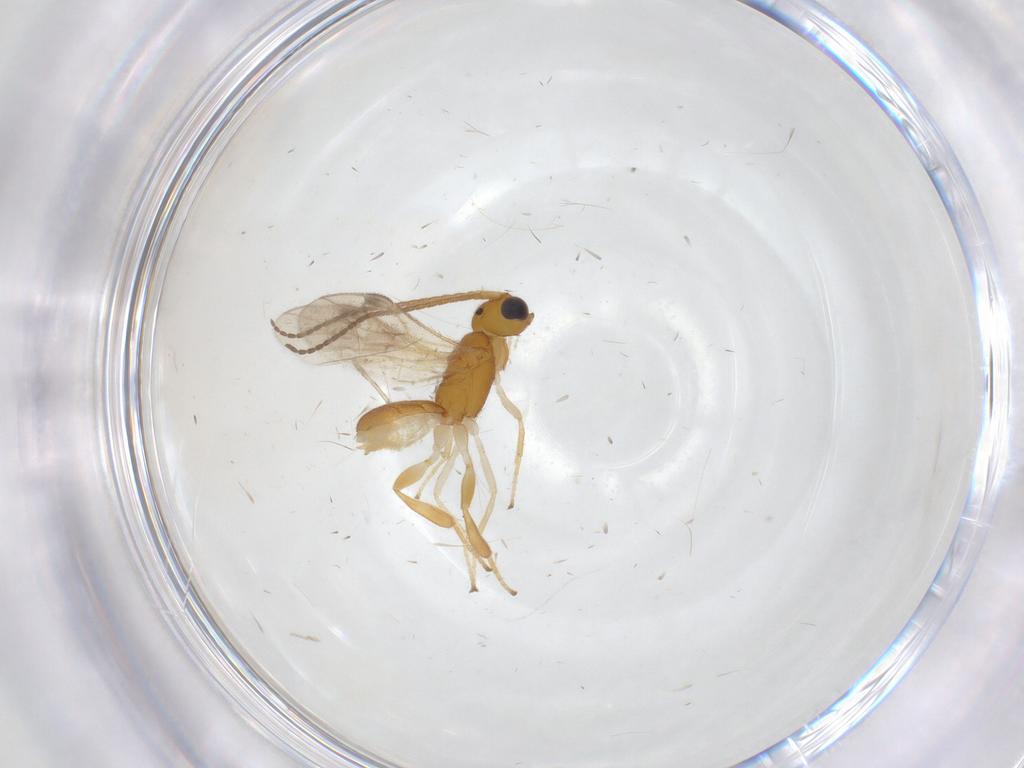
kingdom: Animalia
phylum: Arthropoda
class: Insecta
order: Hymenoptera
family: Braconidae
